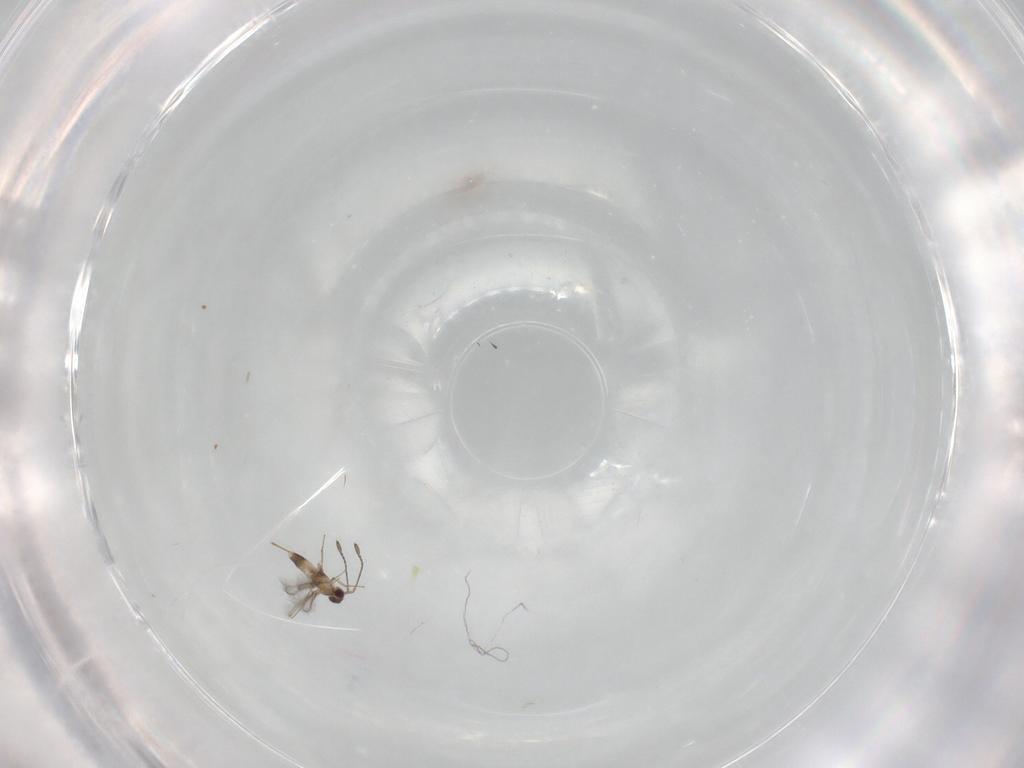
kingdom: Animalia
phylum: Arthropoda
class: Insecta
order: Hymenoptera
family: Mymaridae
